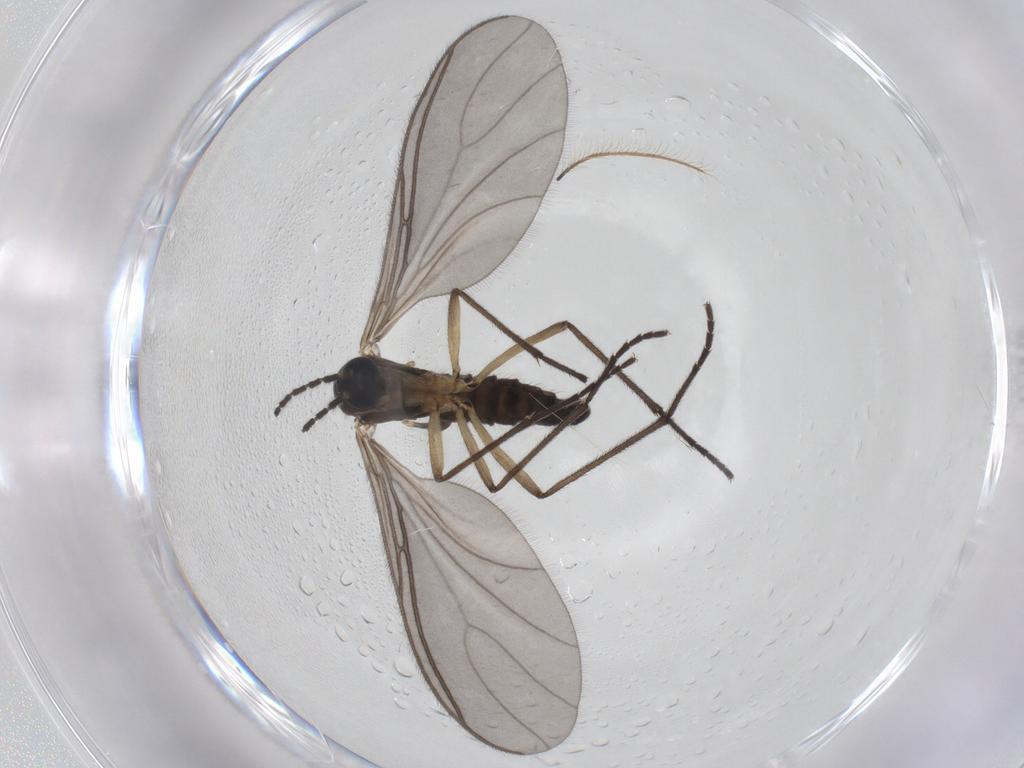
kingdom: Animalia
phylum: Arthropoda
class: Insecta
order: Diptera
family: Sciaridae
